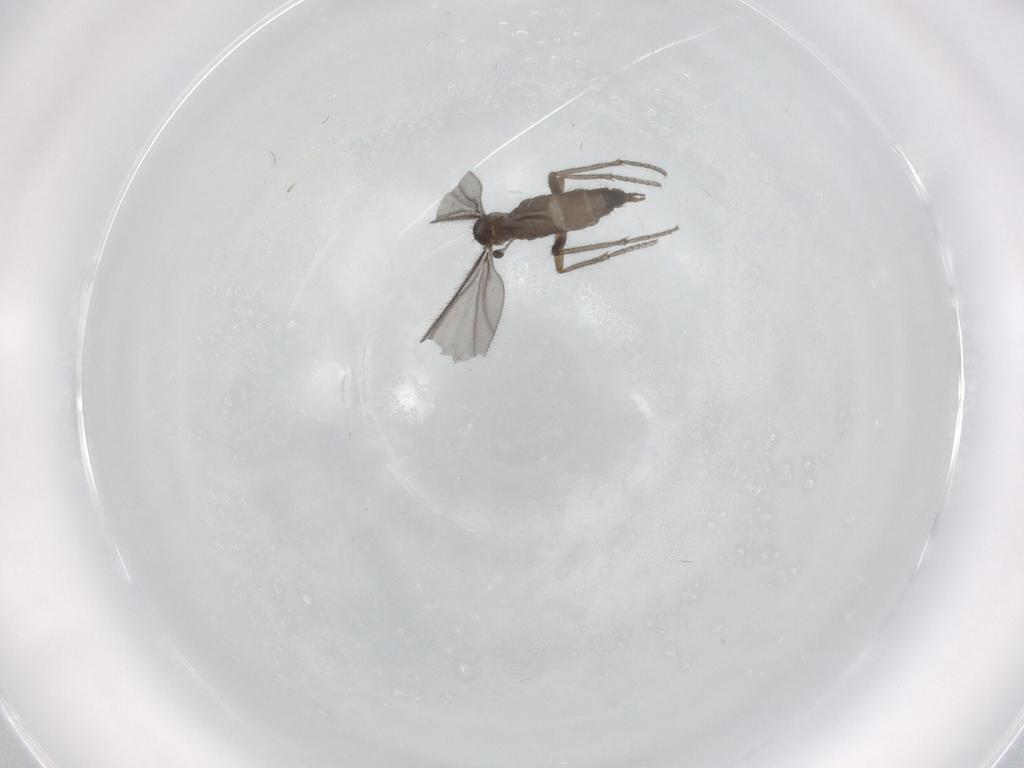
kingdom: Animalia
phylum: Arthropoda
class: Insecta
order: Diptera
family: Sciaridae
